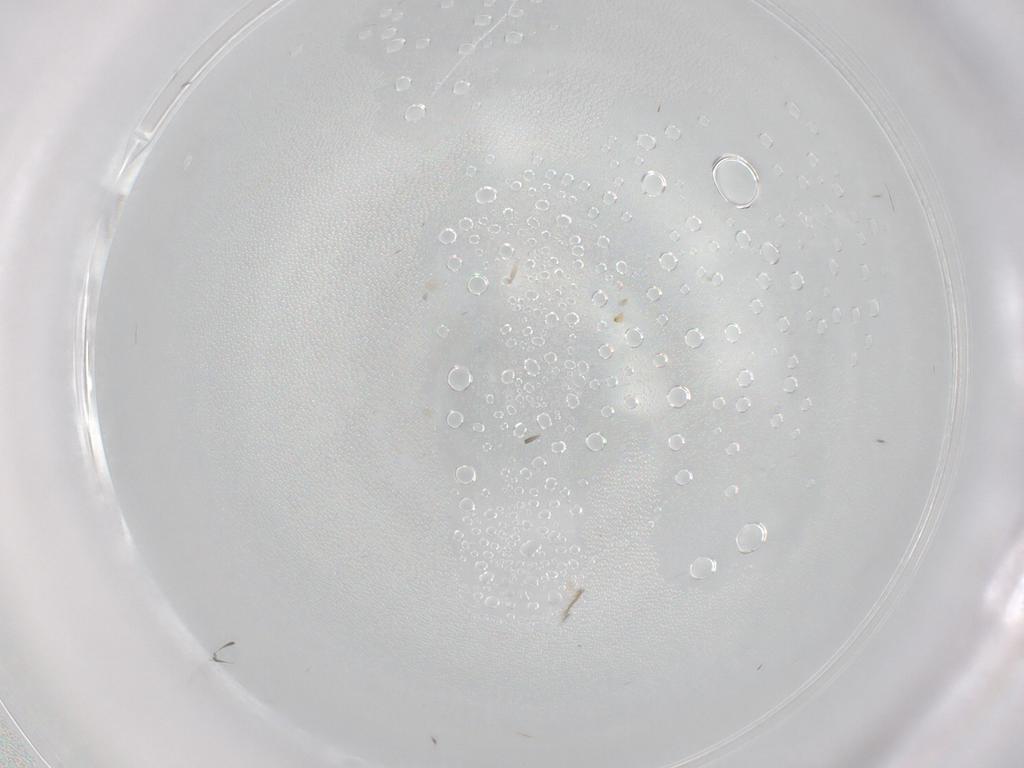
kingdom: Animalia
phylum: Arthropoda
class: Insecta
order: Diptera
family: Ceratopogonidae
